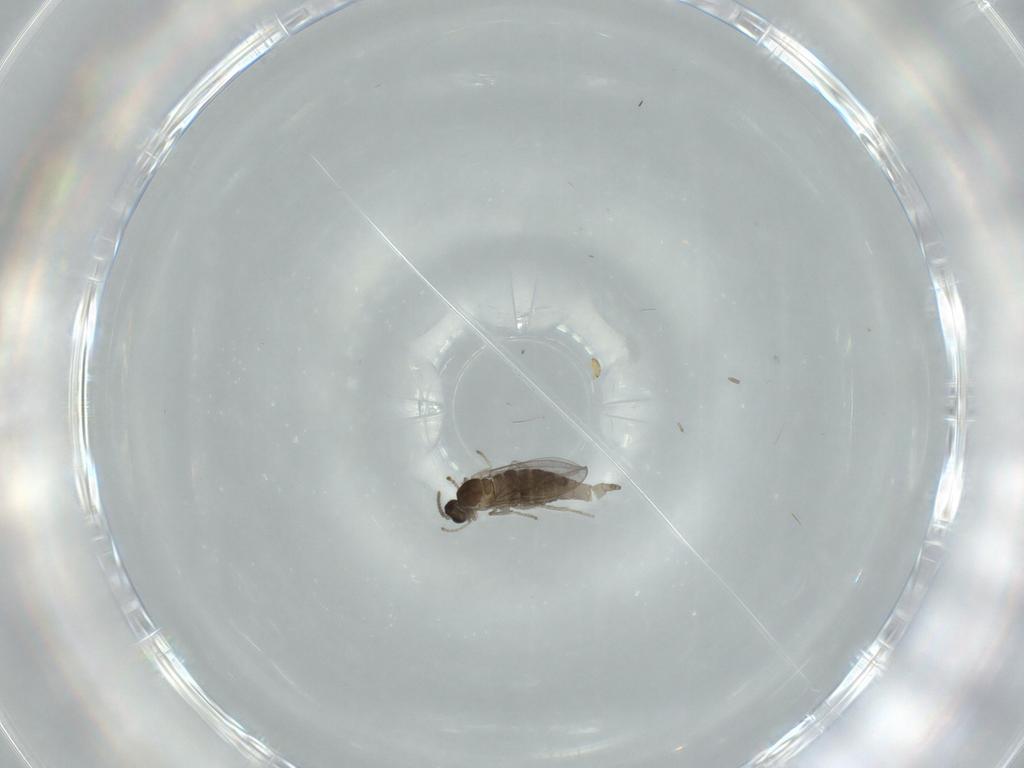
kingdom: Animalia
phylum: Arthropoda
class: Insecta
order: Diptera
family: Cecidomyiidae
